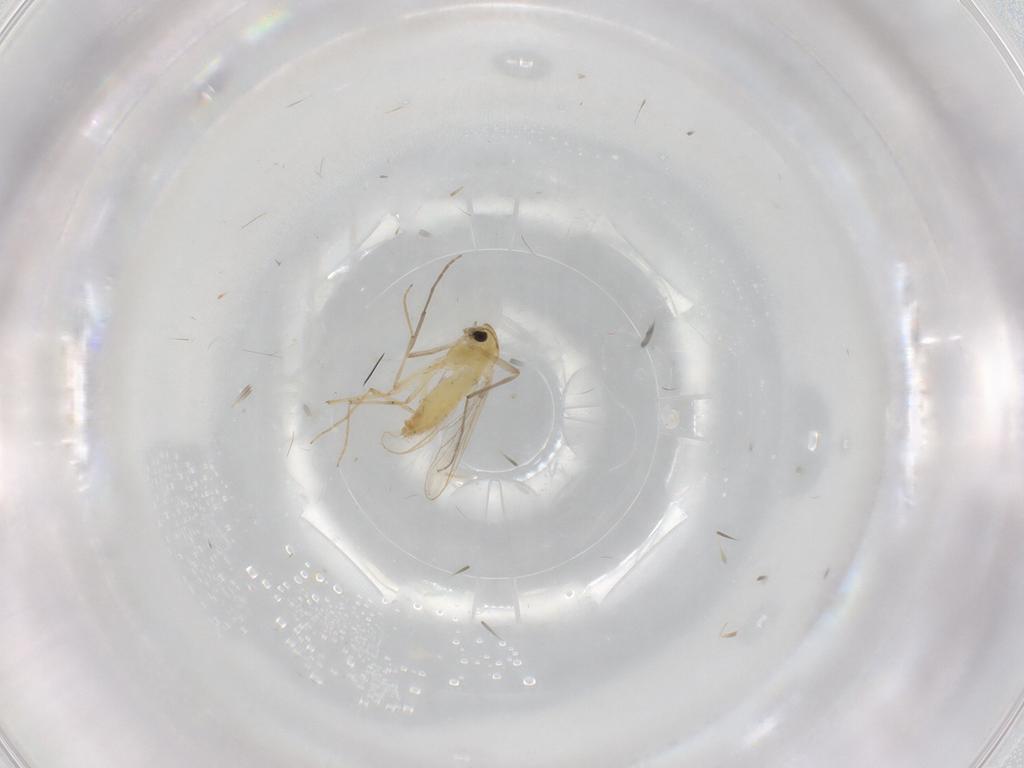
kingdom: Animalia
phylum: Arthropoda
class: Insecta
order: Diptera
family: Chironomidae
